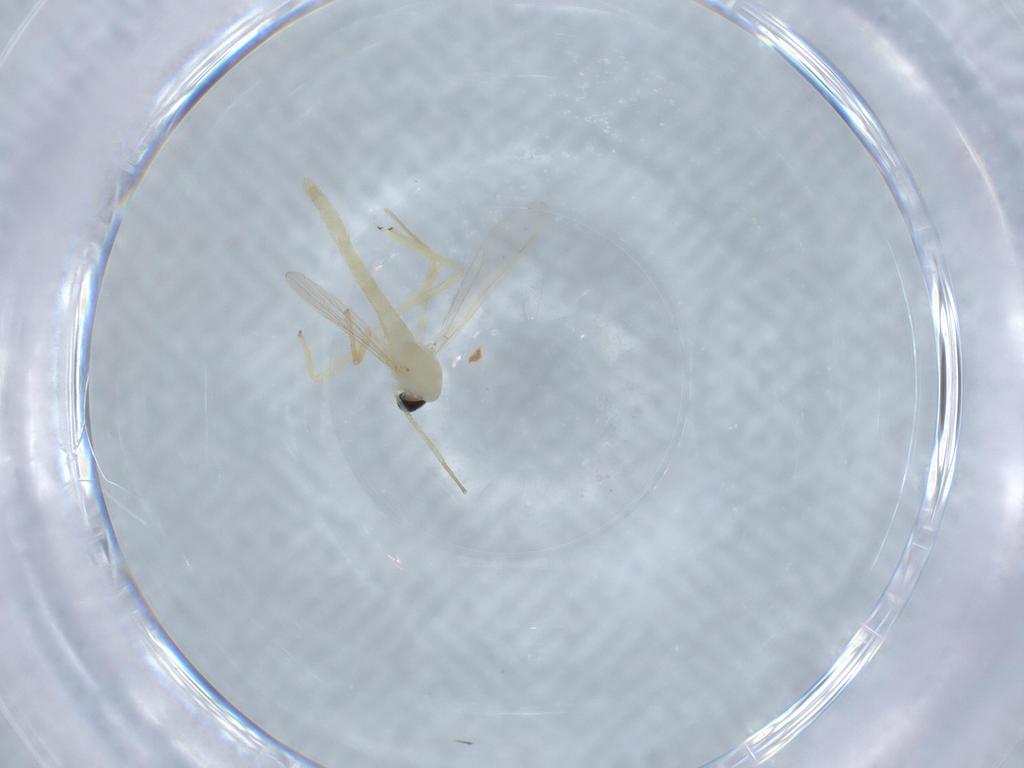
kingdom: Animalia
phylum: Arthropoda
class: Insecta
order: Diptera
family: Chironomidae
